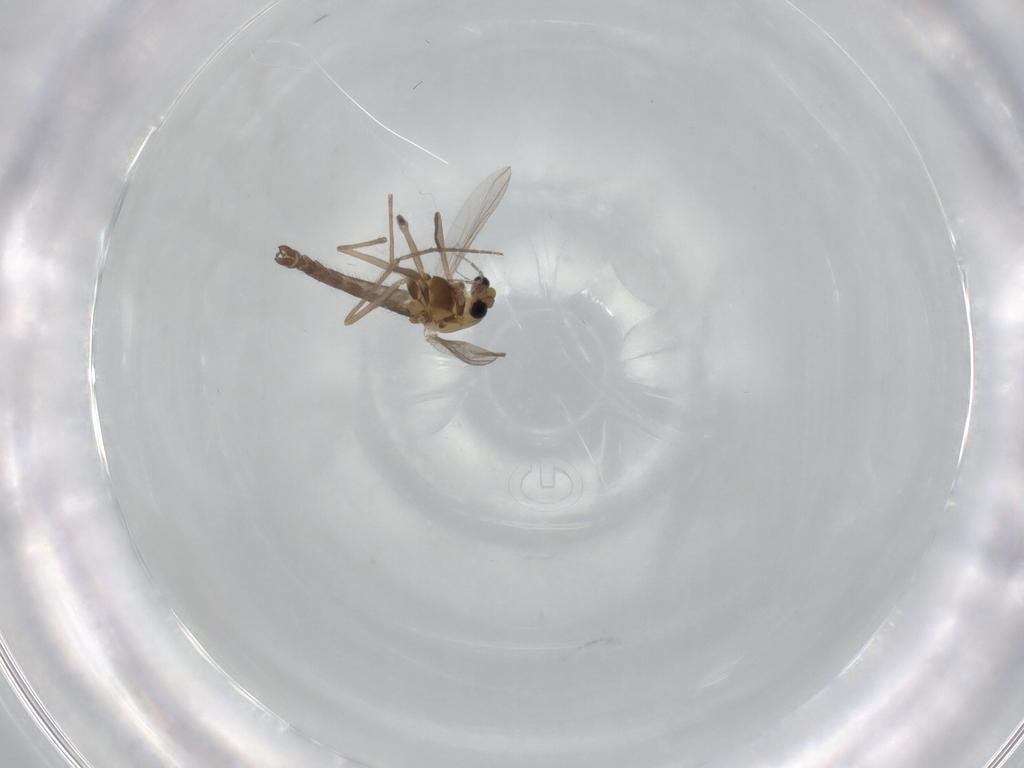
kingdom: Animalia
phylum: Arthropoda
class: Insecta
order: Diptera
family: Chironomidae
